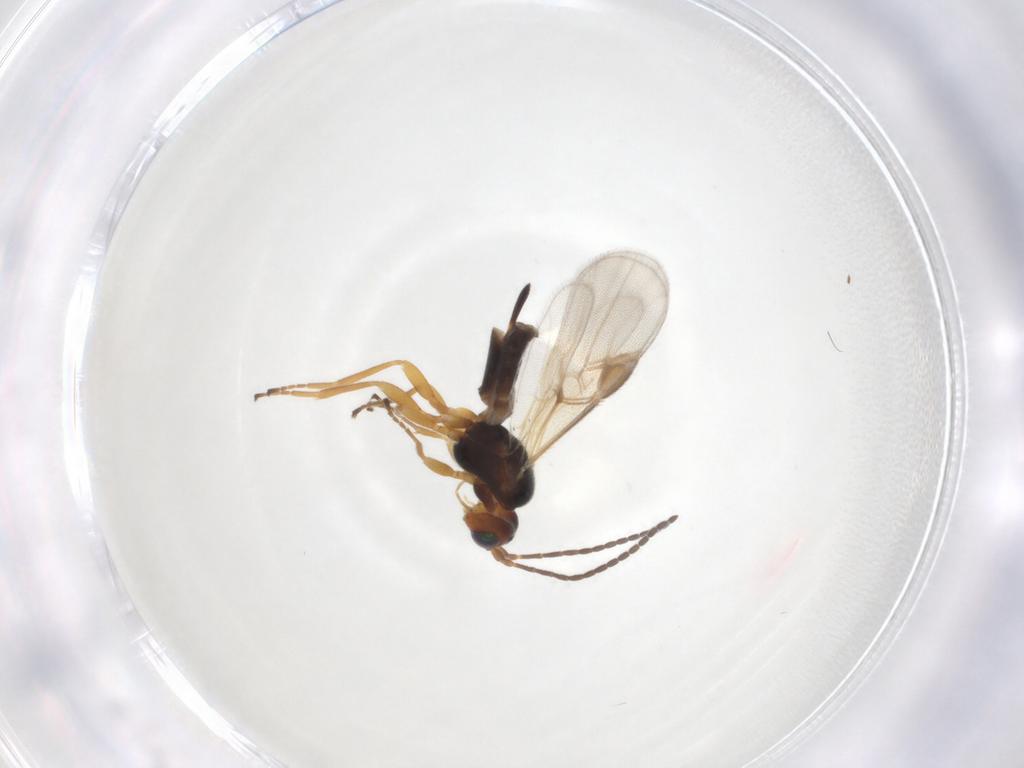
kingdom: Animalia
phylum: Arthropoda
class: Insecta
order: Hymenoptera
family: Braconidae
